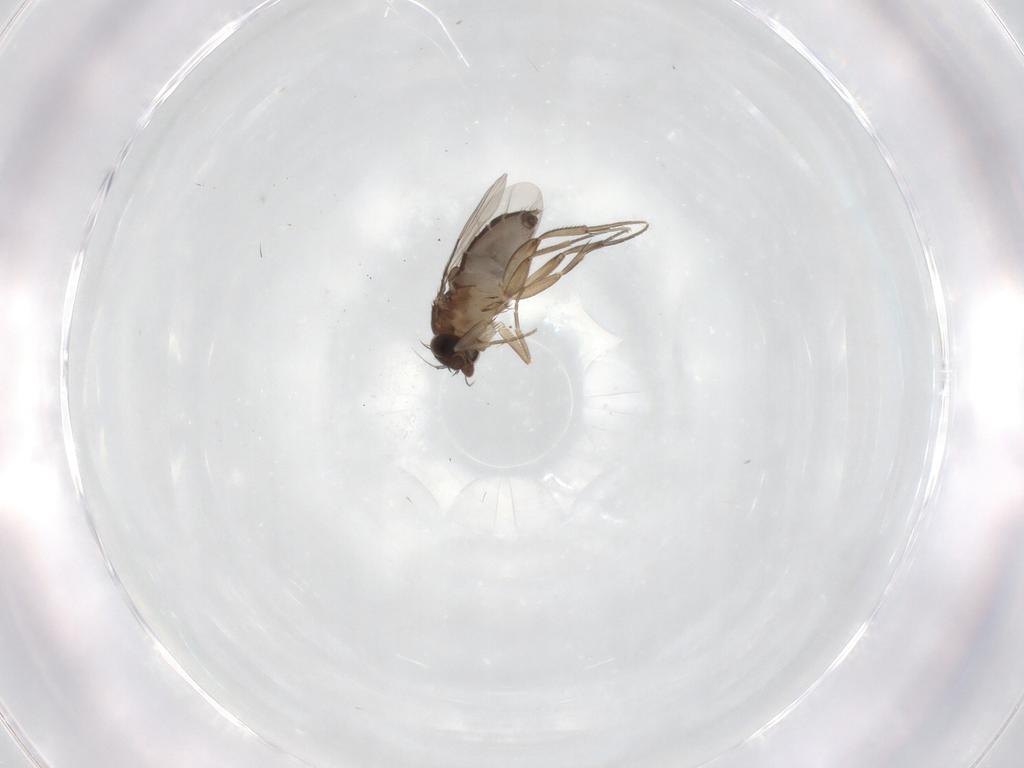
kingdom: Animalia
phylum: Arthropoda
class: Insecta
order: Diptera
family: Phoridae
